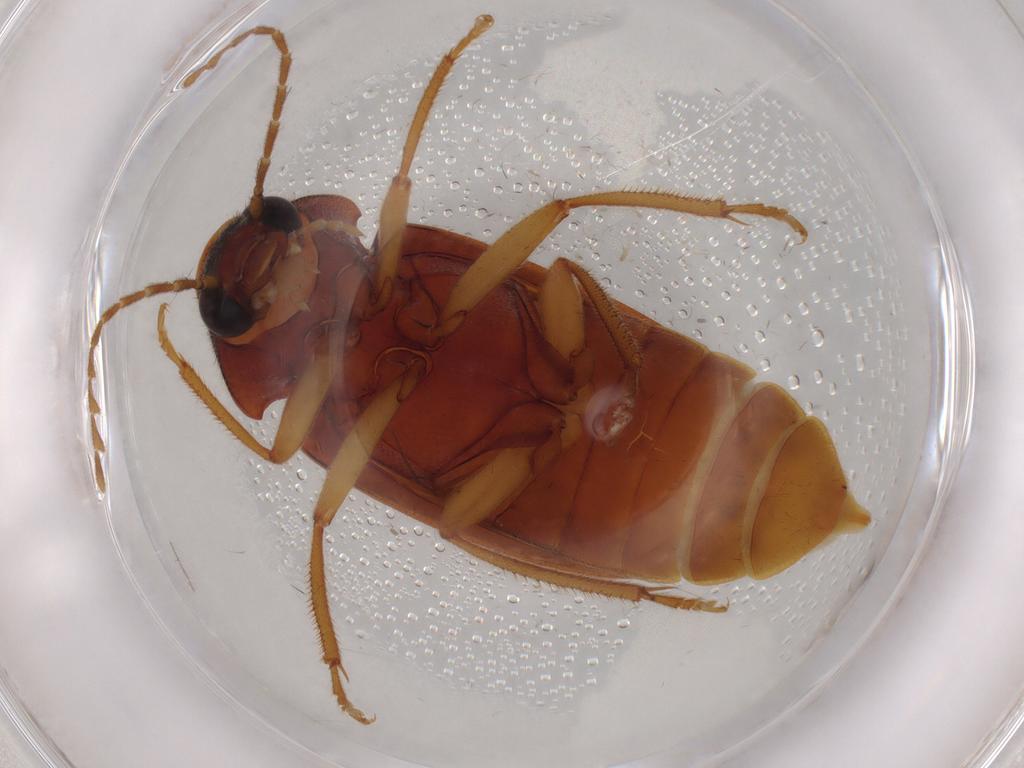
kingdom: Animalia
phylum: Arthropoda
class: Insecta
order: Coleoptera
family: Ptilodactylidae
